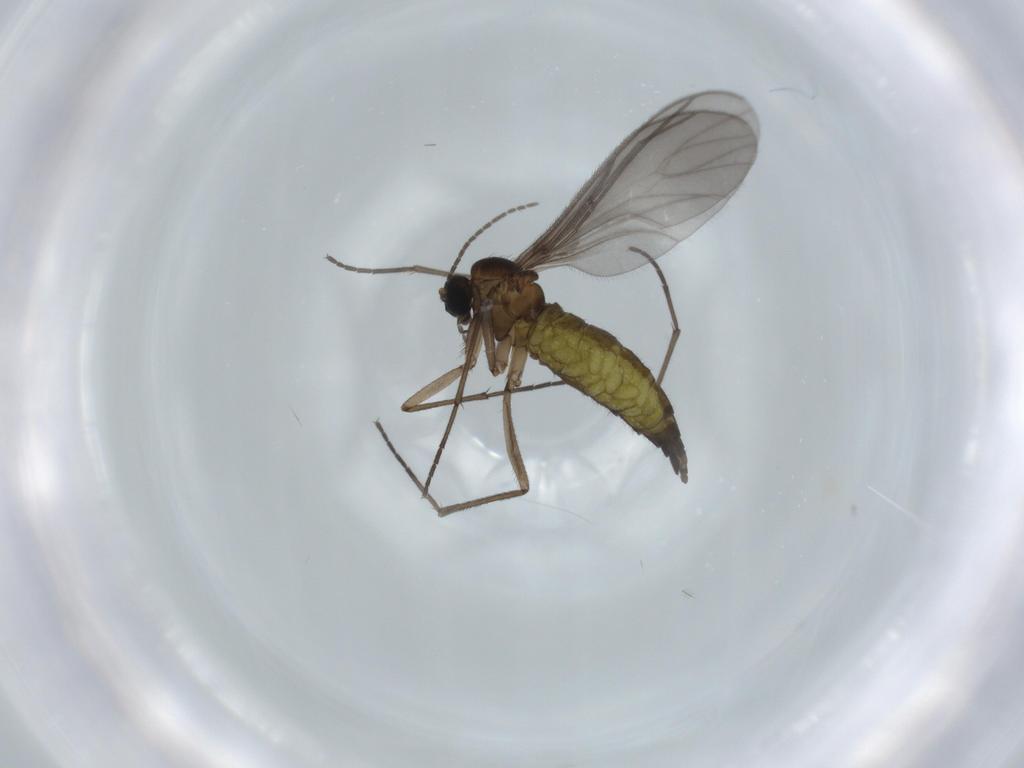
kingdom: Animalia
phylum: Arthropoda
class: Insecta
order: Diptera
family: Sciaridae
